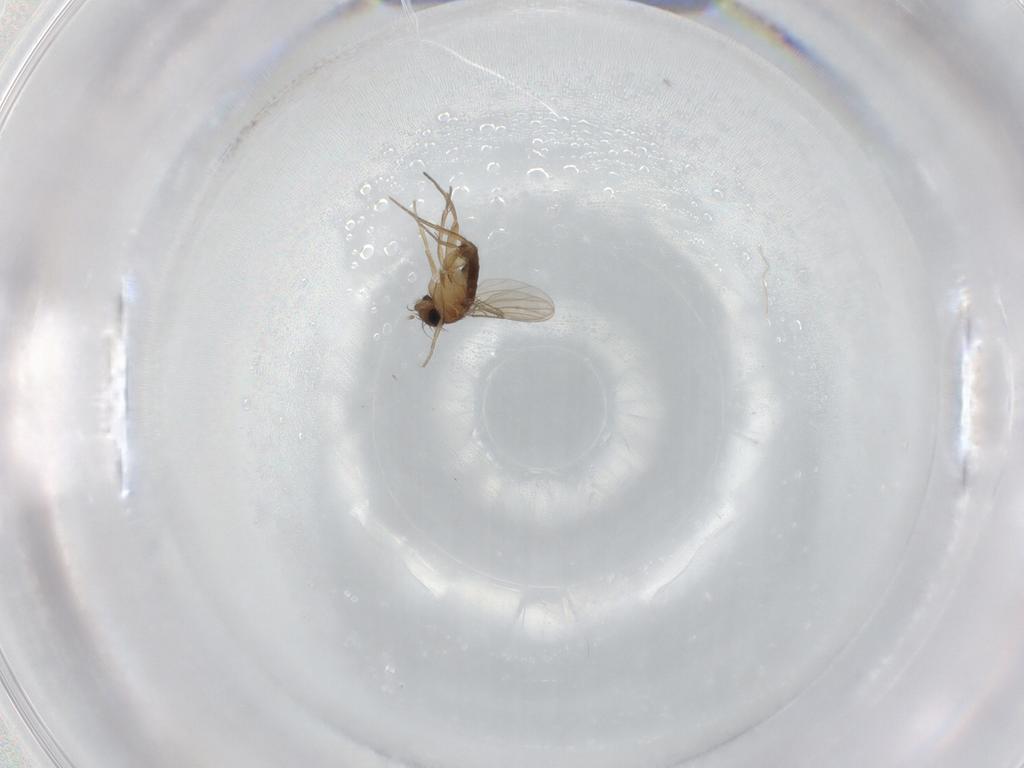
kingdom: Animalia
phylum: Arthropoda
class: Insecta
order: Diptera
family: Phoridae
